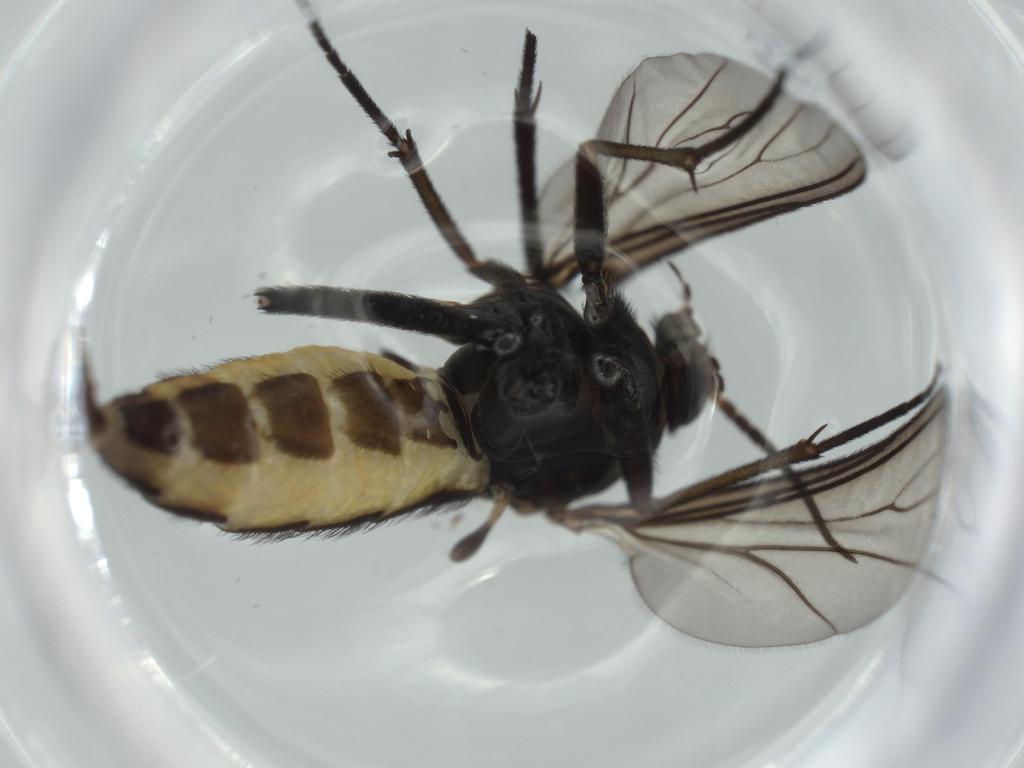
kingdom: Animalia
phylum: Arthropoda
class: Insecta
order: Diptera
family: Sciaridae
